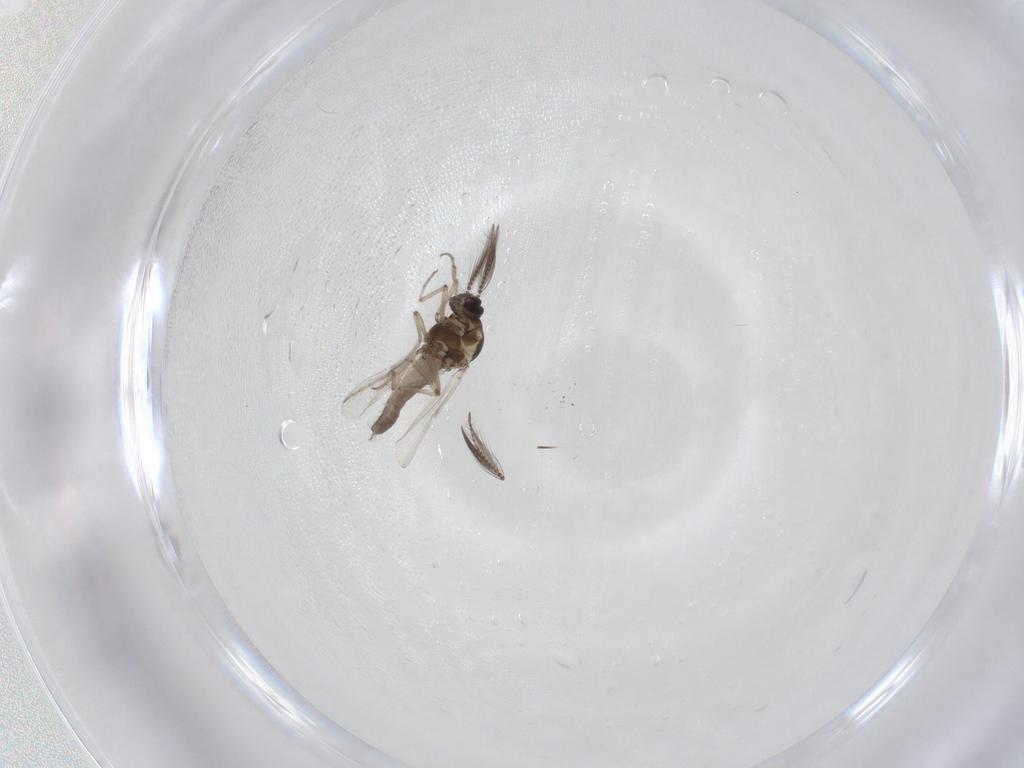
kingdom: Animalia
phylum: Arthropoda
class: Insecta
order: Diptera
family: Ceratopogonidae
